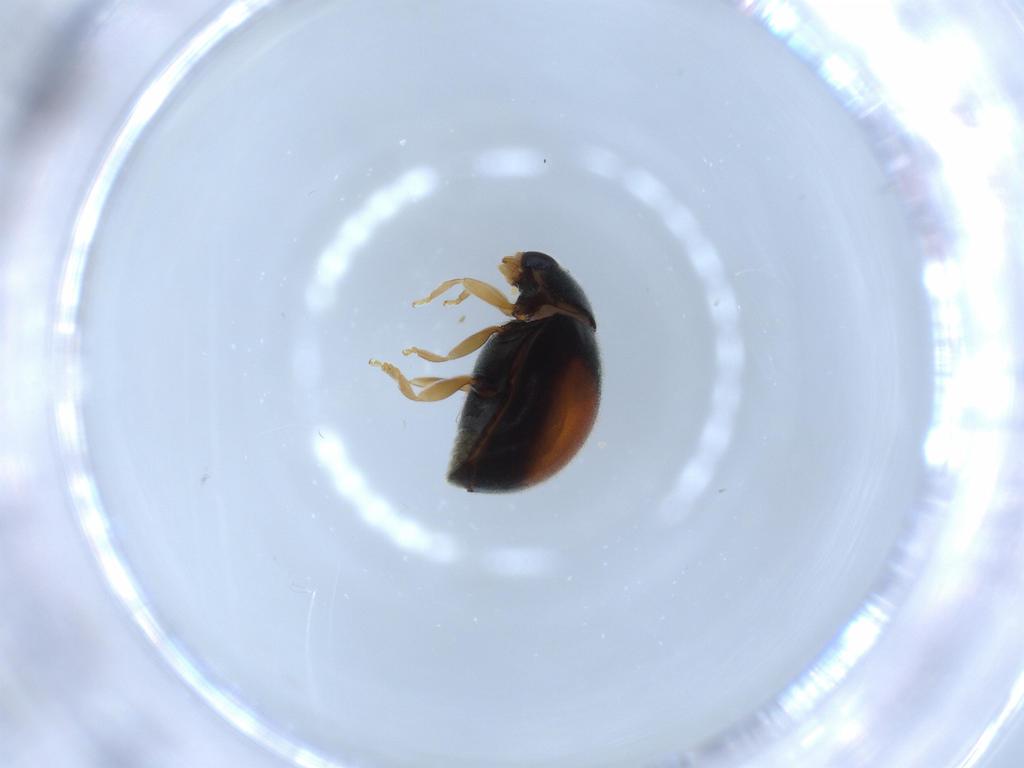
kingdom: Animalia
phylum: Arthropoda
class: Insecta
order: Coleoptera
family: Coccinellidae
